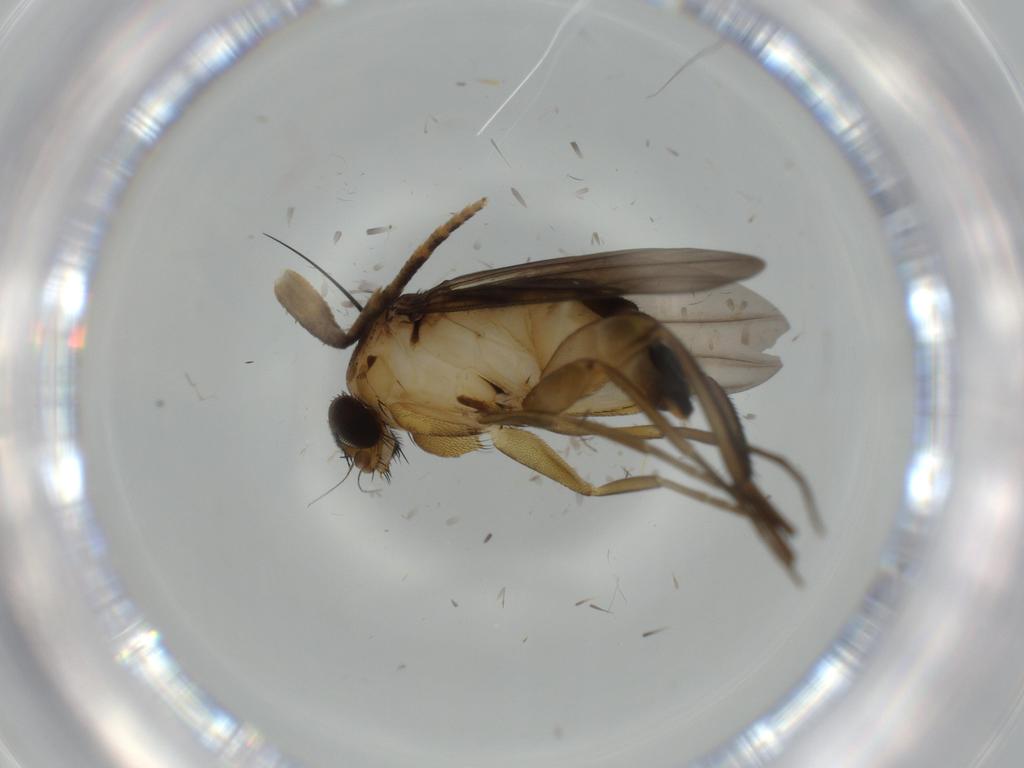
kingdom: Animalia
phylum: Arthropoda
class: Insecta
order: Diptera
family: Phoridae
